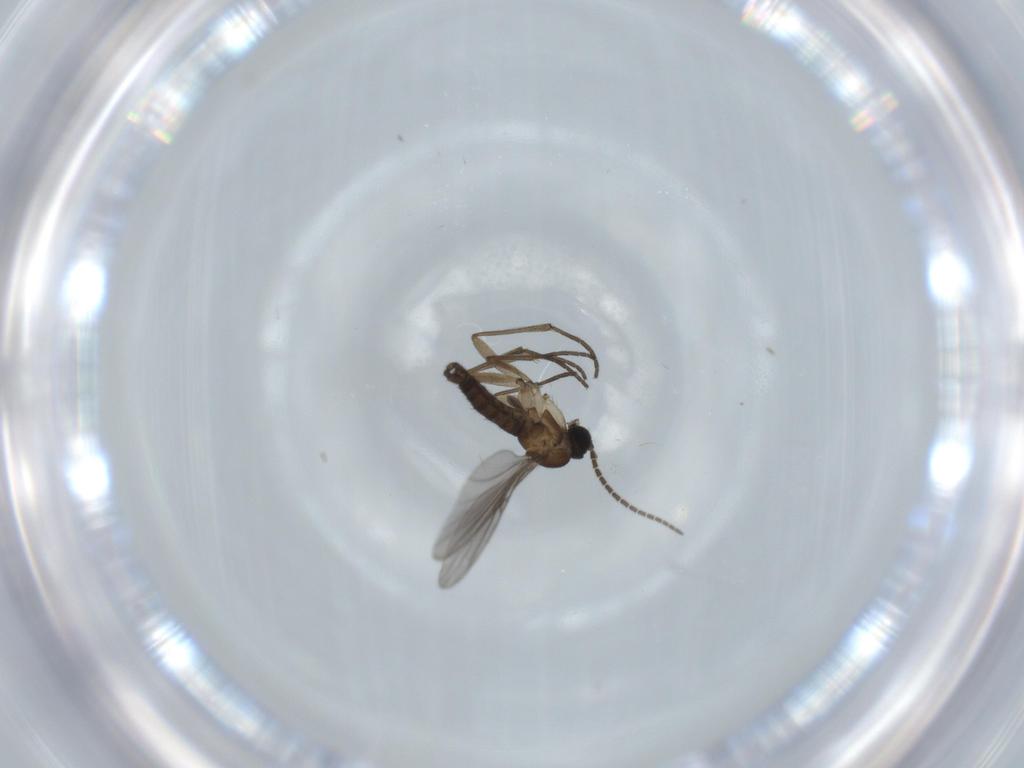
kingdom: Animalia
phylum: Arthropoda
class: Insecta
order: Diptera
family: Sciaridae
